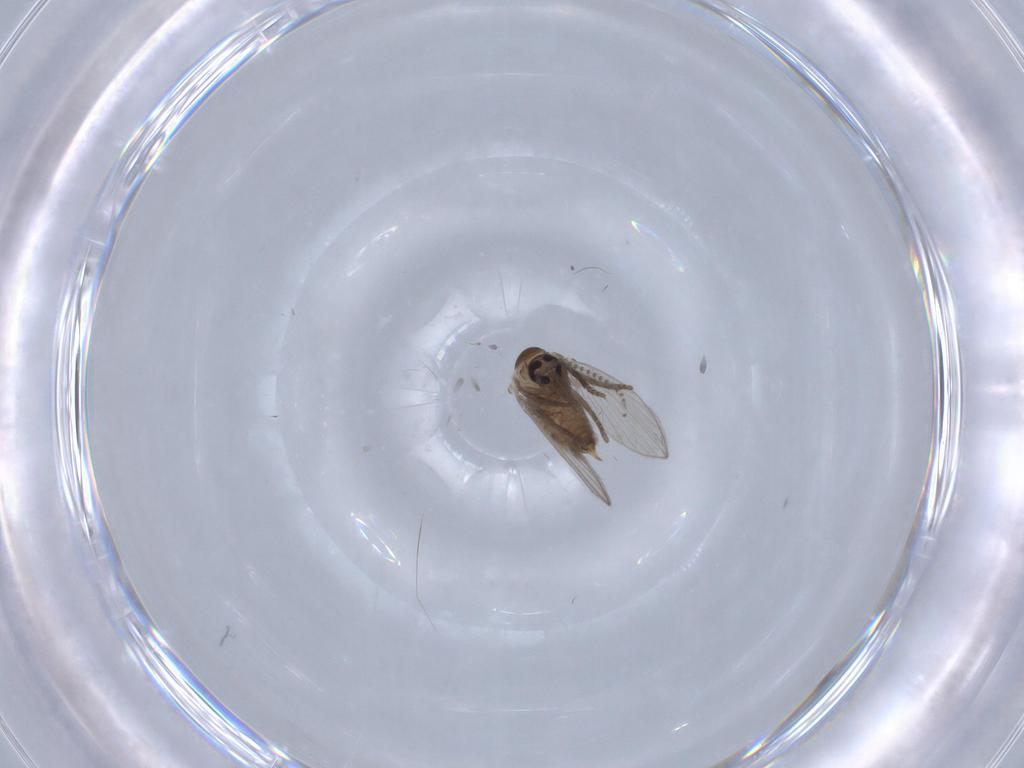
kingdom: Animalia
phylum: Arthropoda
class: Insecta
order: Diptera
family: Psychodidae
